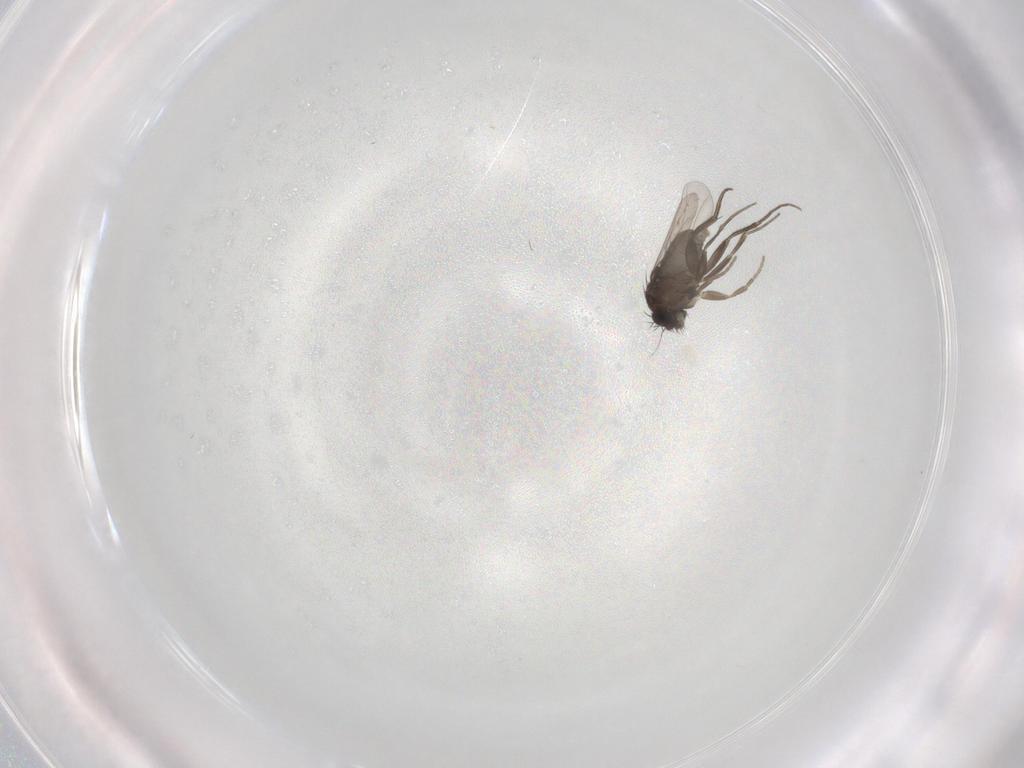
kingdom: Animalia
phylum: Arthropoda
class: Insecta
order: Diptera
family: Phoridae
